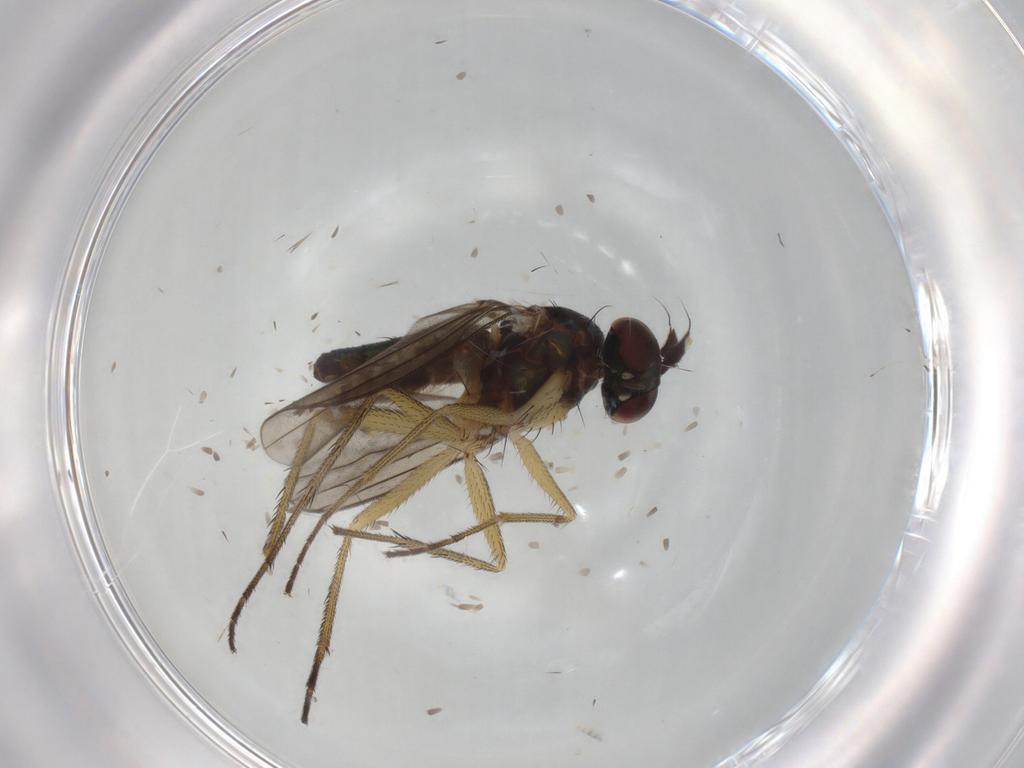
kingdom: Animalia
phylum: Arthropoda
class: Insecta
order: Diptera
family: Dolichopodidae
